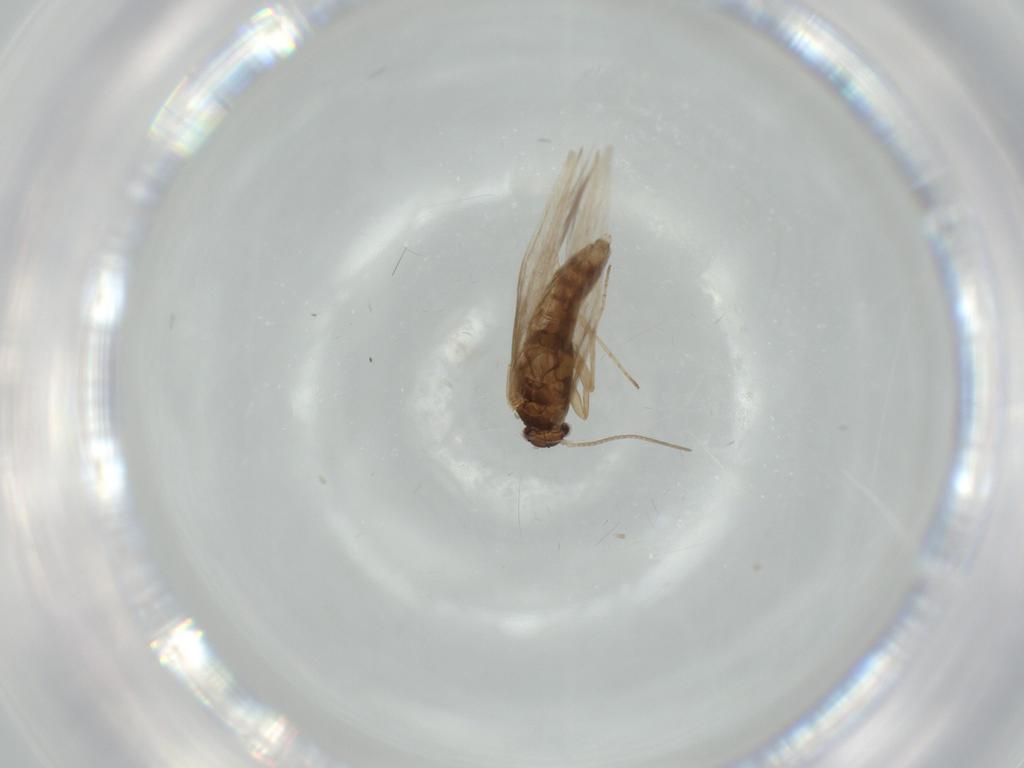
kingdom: Animalia
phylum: Arthropoda
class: Insecta
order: Trichoptera
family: Hydroptilidae
